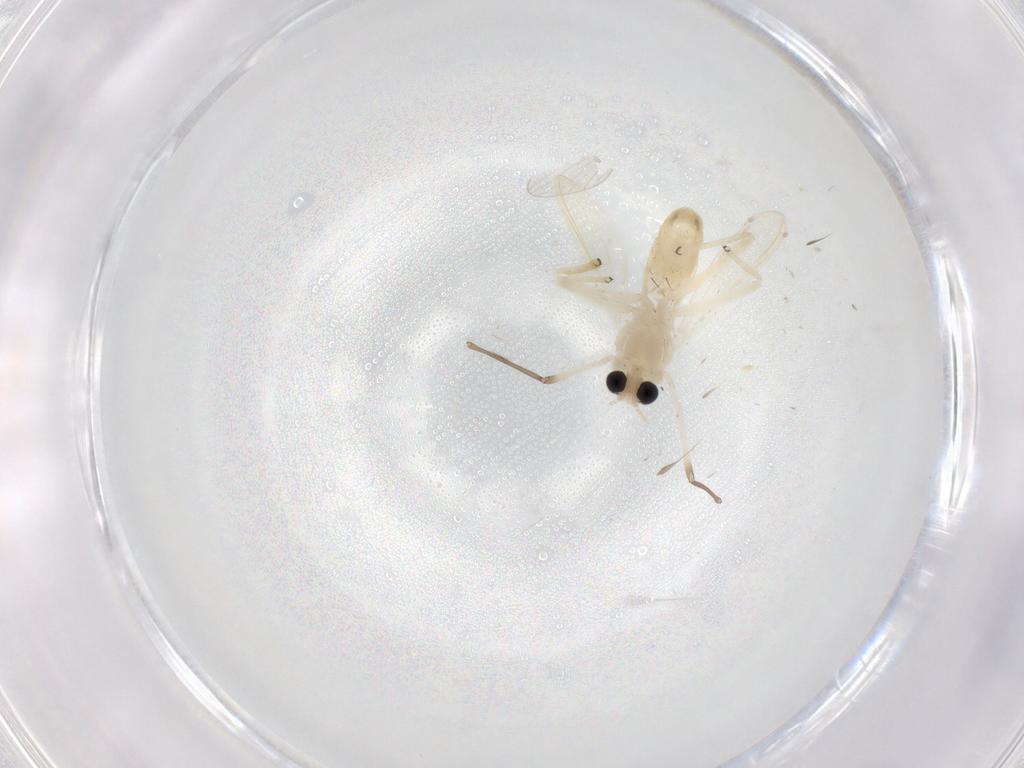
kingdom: Animalia
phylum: Arthropoda
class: Insecta
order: Diptera
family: Chironomidae
